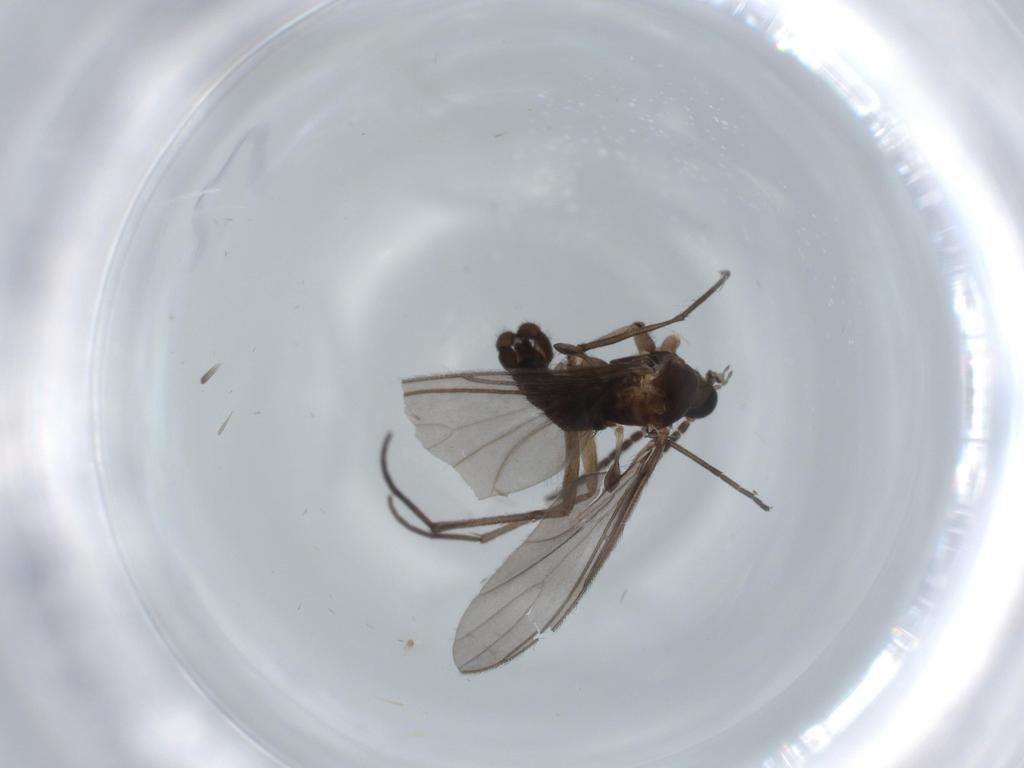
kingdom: Animalia
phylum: Arthropoda
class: Insecta
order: Diptera
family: Sciaridae
